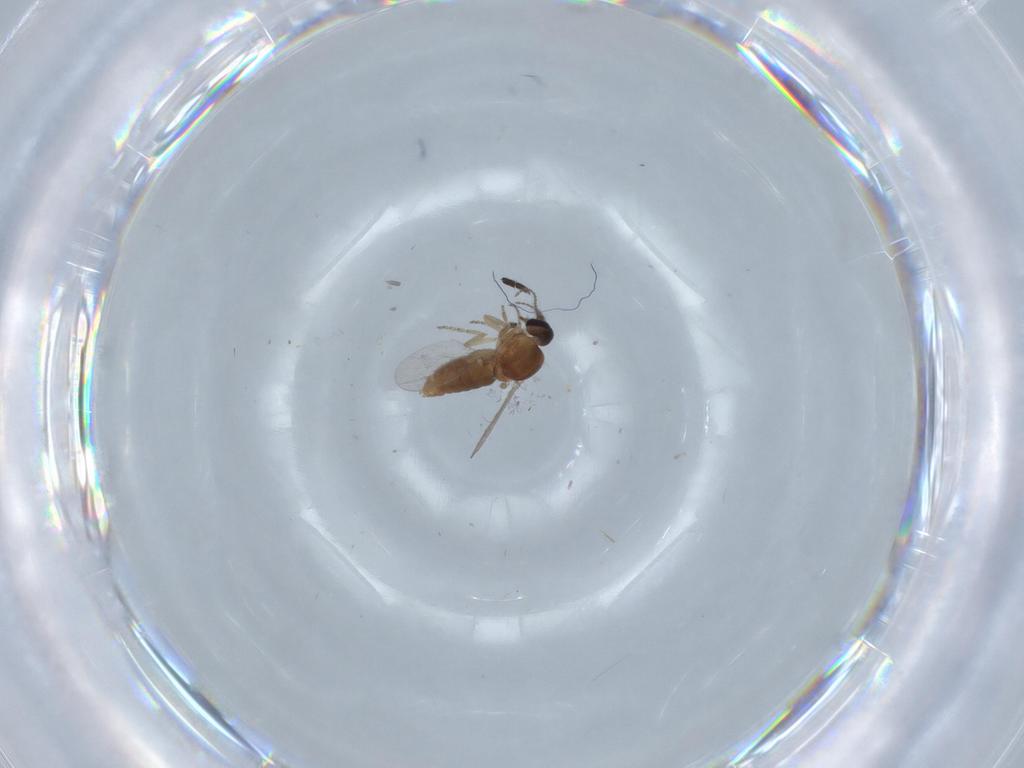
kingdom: Animalia
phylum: Arthropoda
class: Insecta
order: Diptera
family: Ceratopogonidae
